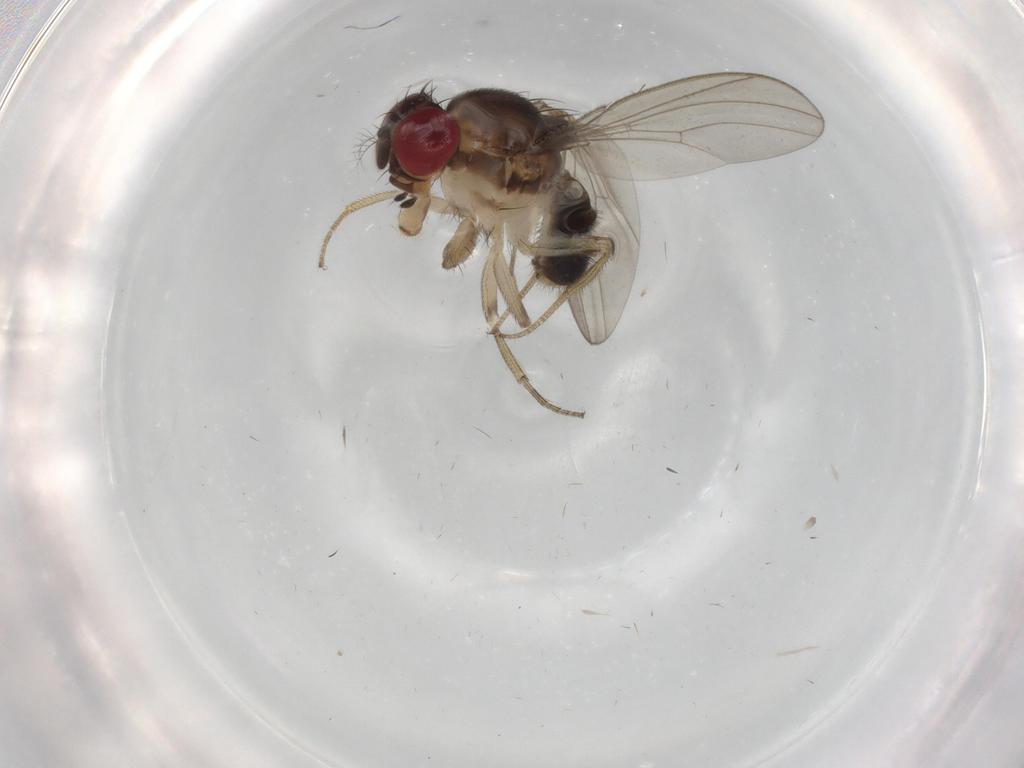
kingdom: Animalia
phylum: Arthropoda
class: Insecta
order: Diptera
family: Drosophilidae
